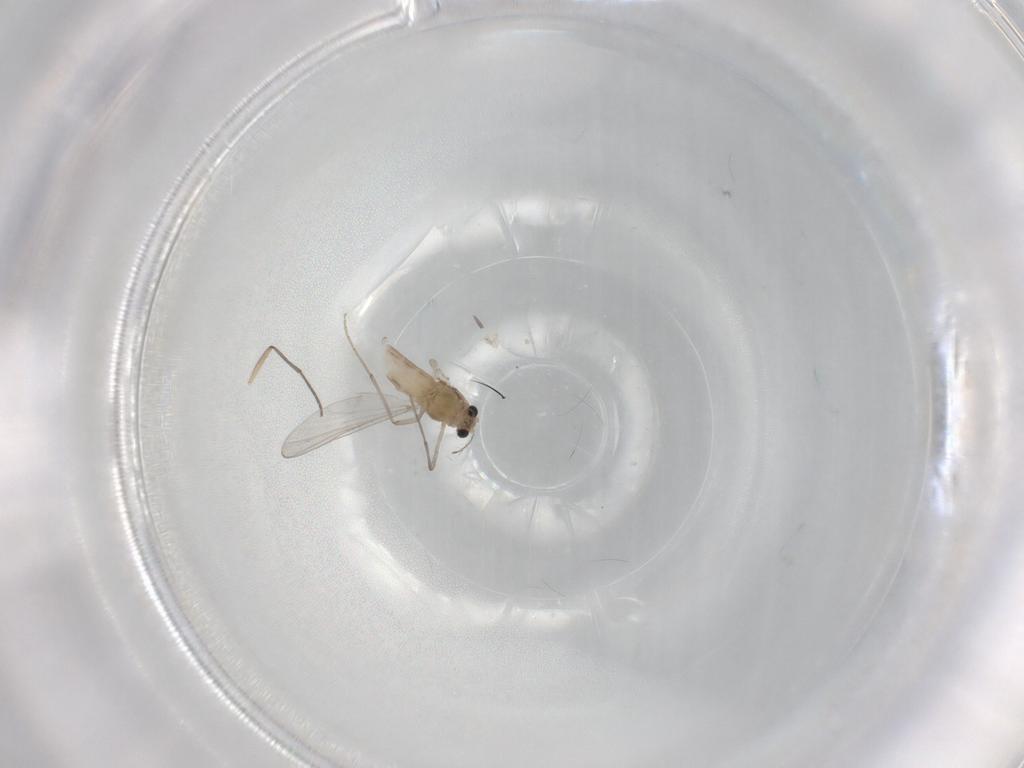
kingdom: Animalia
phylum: Arthropoda
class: Insecta
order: Diptera
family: Chironomidae
